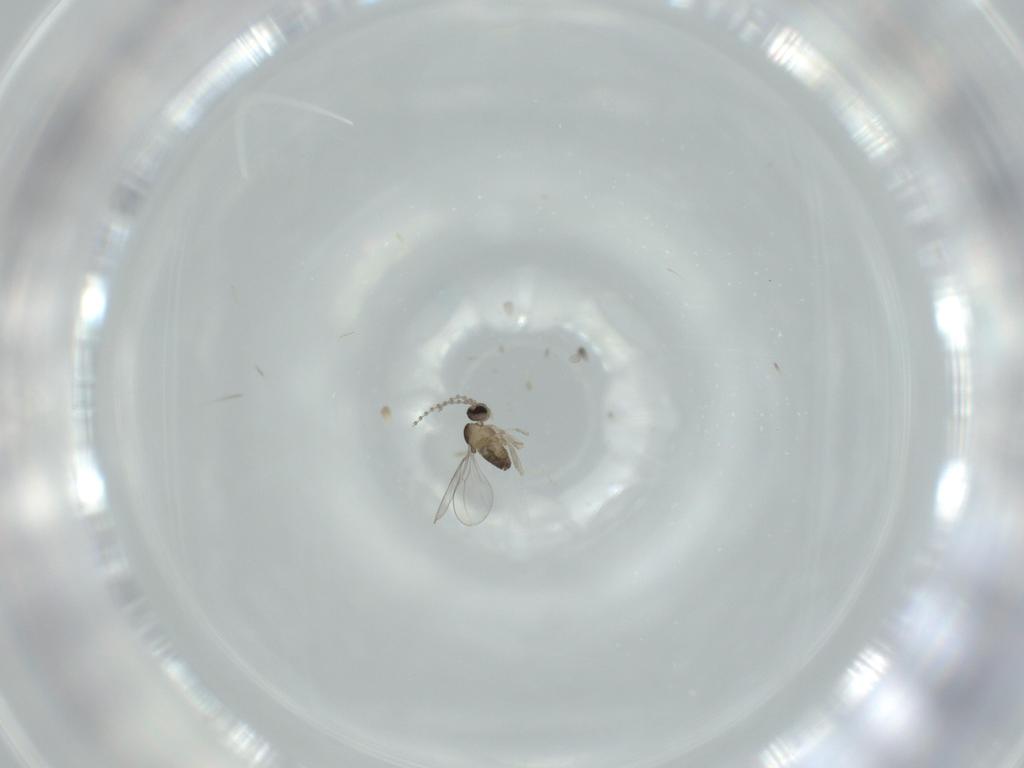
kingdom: Animalia
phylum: Arthropoda
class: Insecta
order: Diptera
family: Cecidomyiidae
